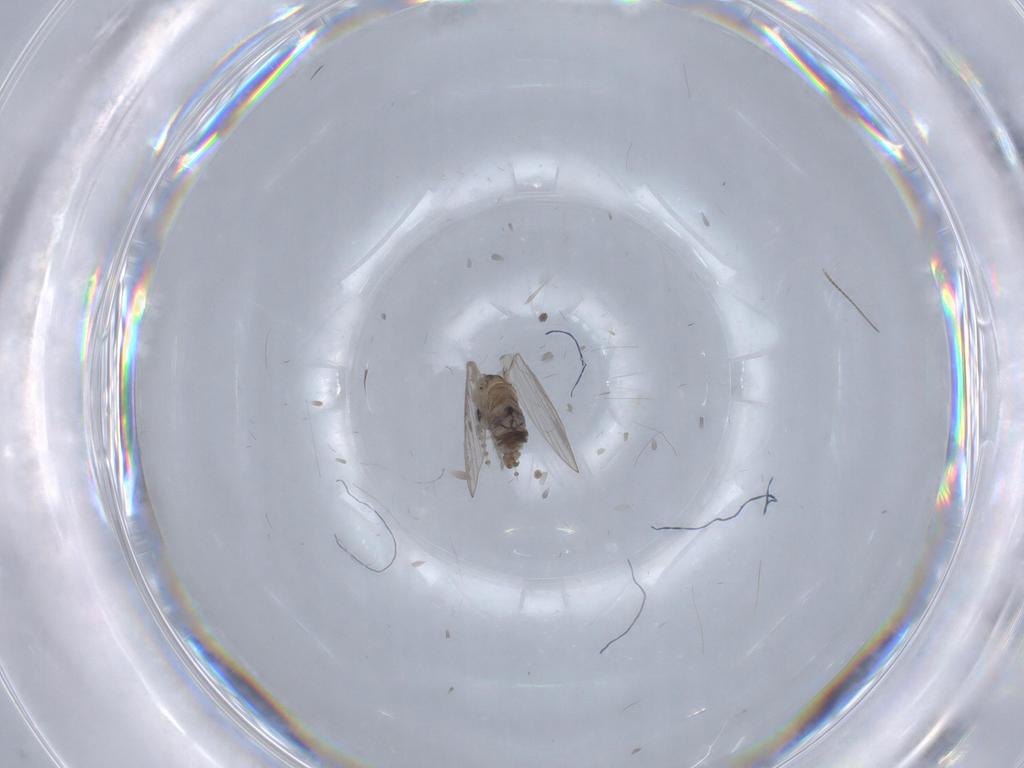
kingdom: Animalia
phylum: Arthropoda
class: Insecta
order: Diptera
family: Psychodidae
